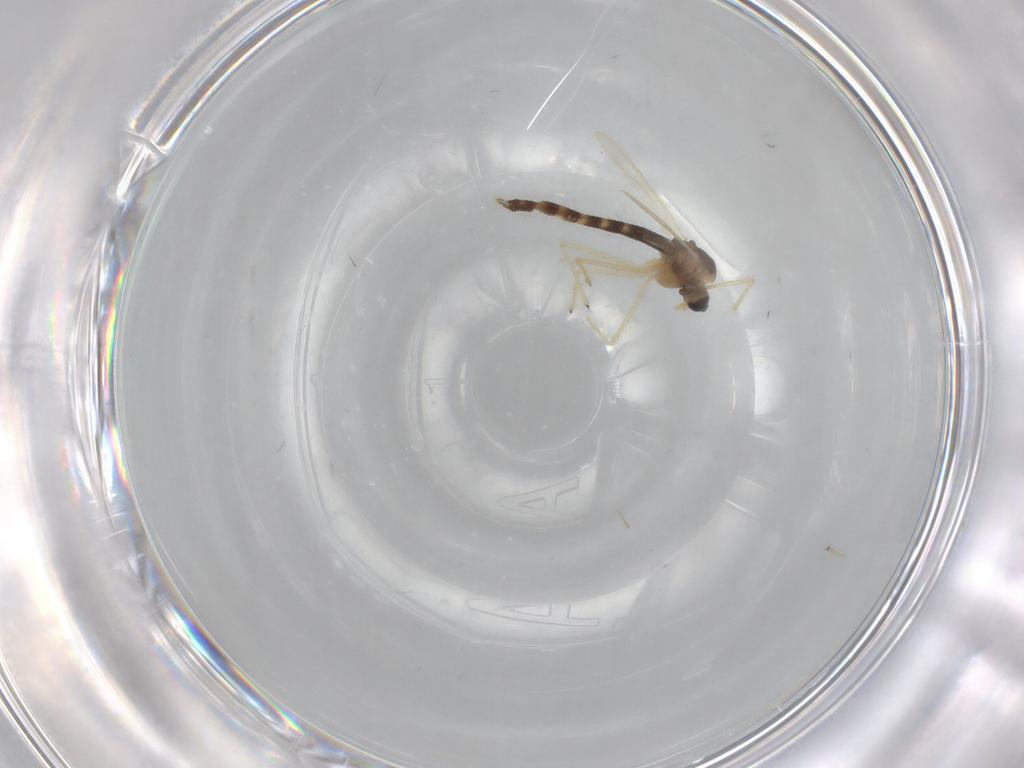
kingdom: Animalia
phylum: Arthropoda
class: Insecta
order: Diptera
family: Chironomidae
